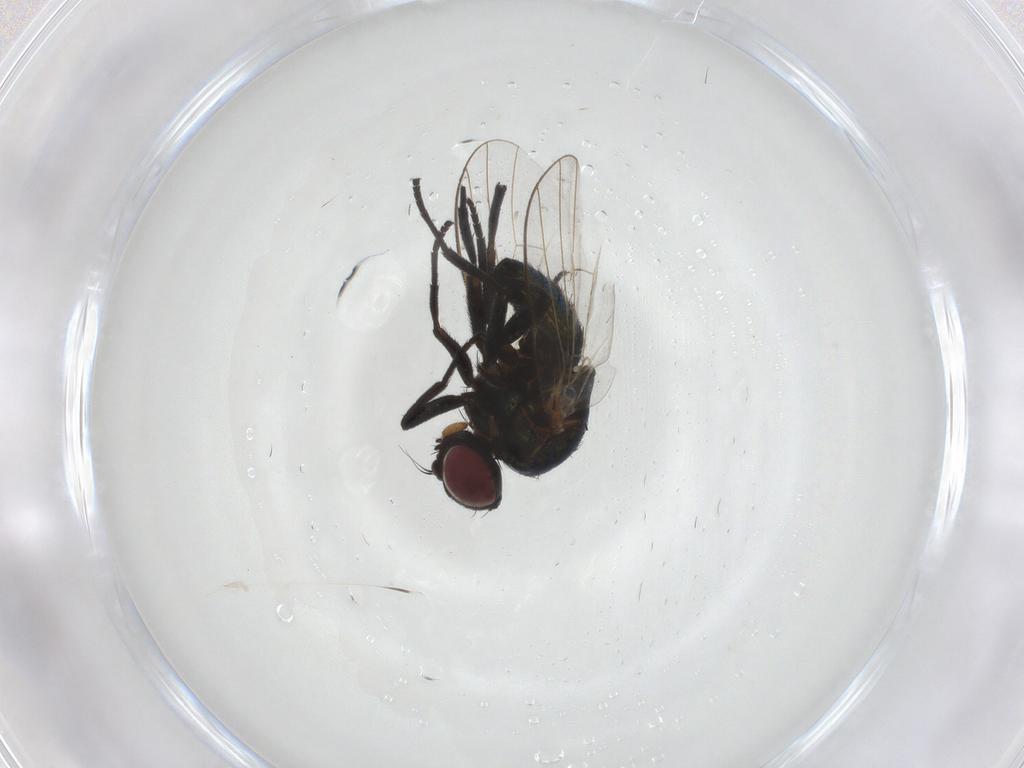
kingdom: Animalia
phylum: Arthropoda
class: Insecta
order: Diptera
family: Agromyzidae
